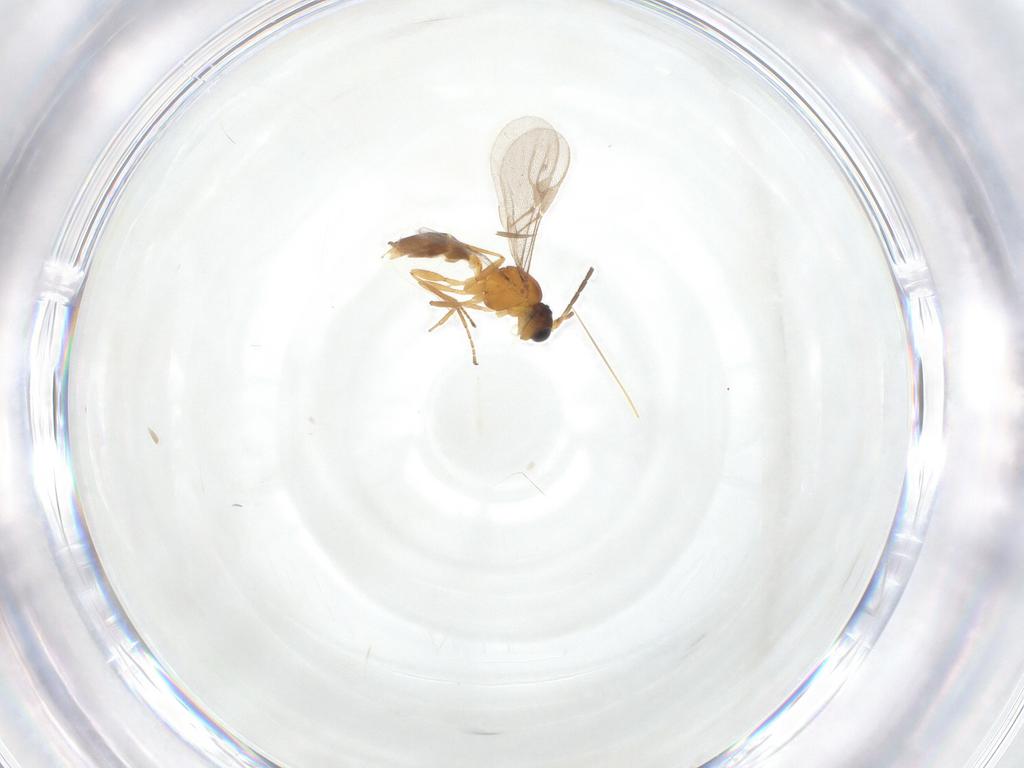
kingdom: Animalia
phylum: Arthropoda
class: Insecta
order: Hymenoptera
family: Braconidae
